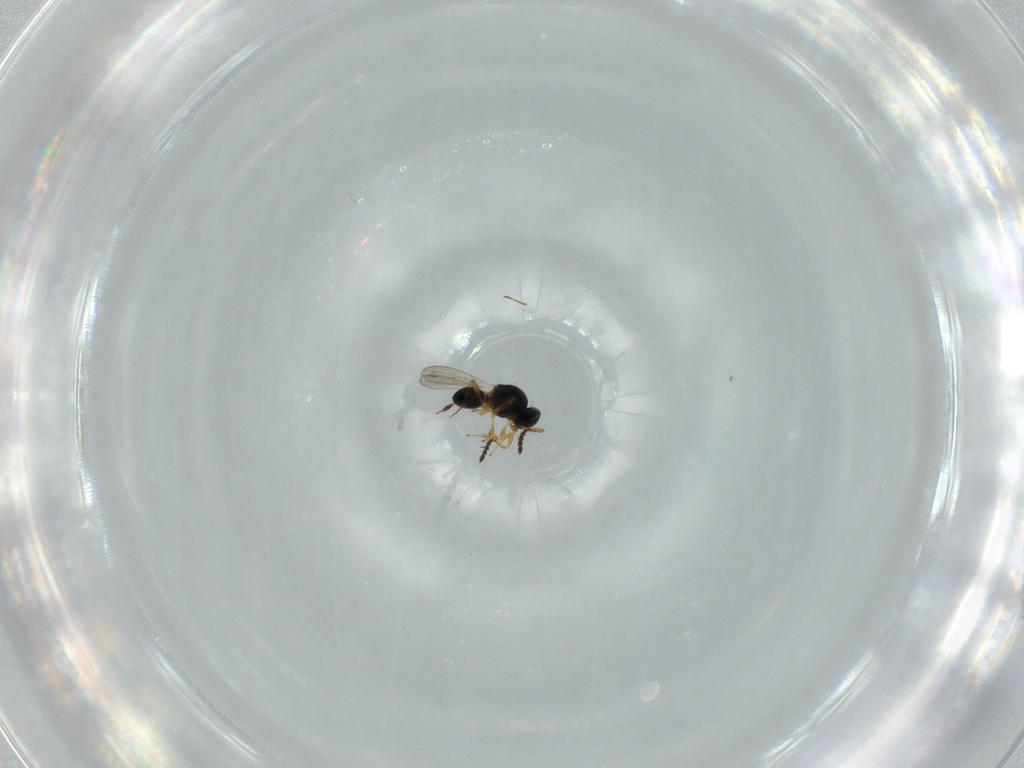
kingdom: Animalia
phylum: Arthropoda
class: Insecta
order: Hymenoptera
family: Platygastridae
